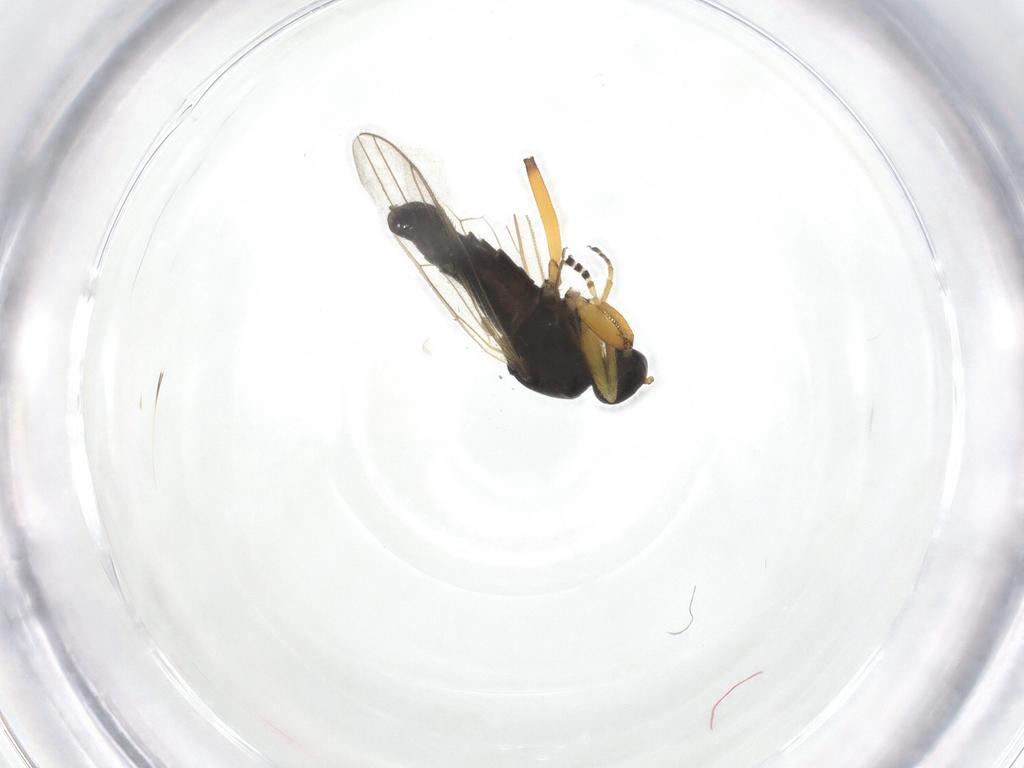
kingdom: Animalia
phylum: Arthropoda
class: Insecta
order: Diptera
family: Hybotidae
